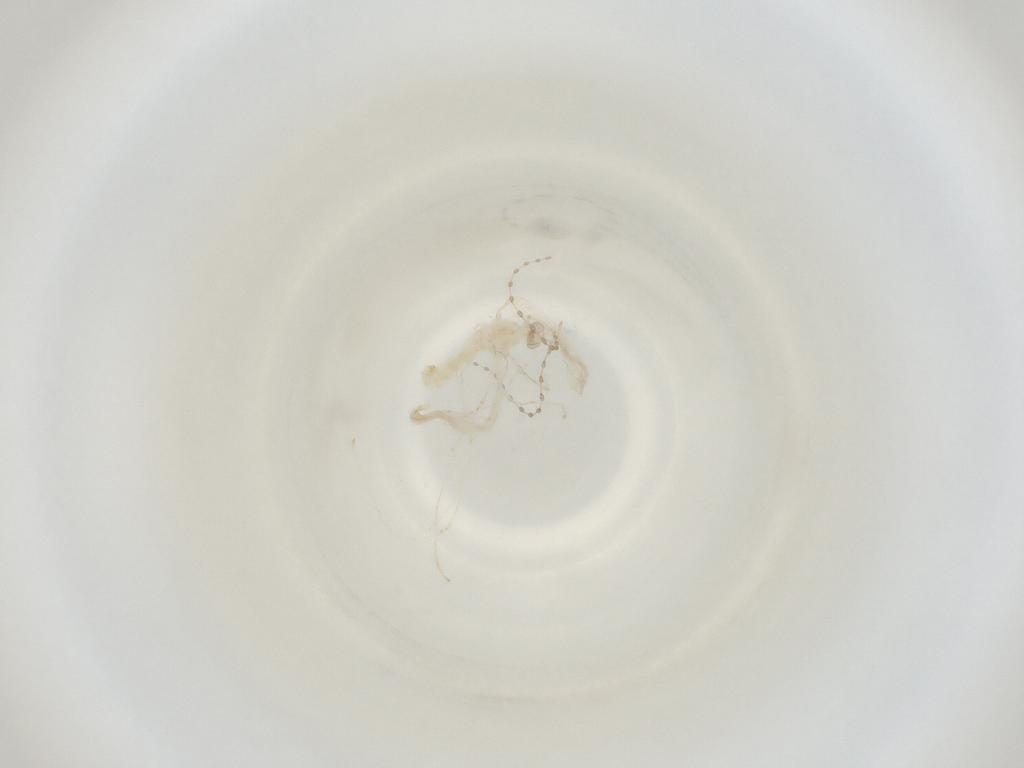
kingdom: Animalia
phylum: Arthropoda
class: Insecta
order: Diptera
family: Cecidomyiidae
